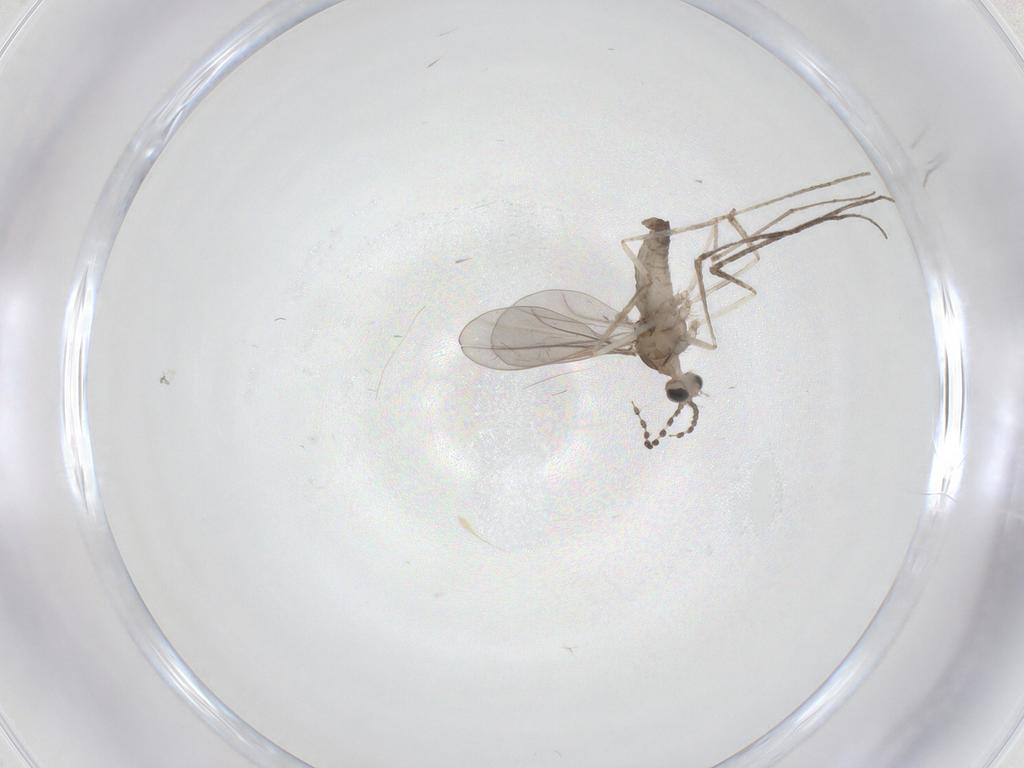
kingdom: Animalia
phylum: Arthropoda
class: Insecta
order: Diptera
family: Cecidomyiidae
